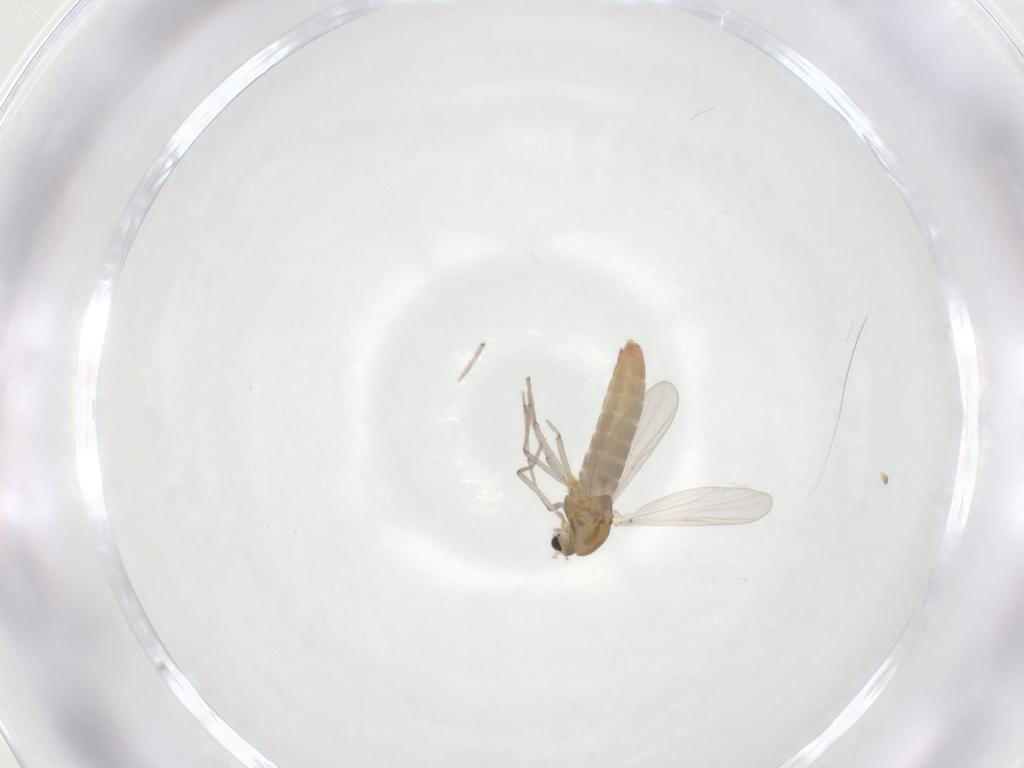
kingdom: Animalia
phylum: Arthropoda
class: Insecta
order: Diptera
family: Chironomidae
